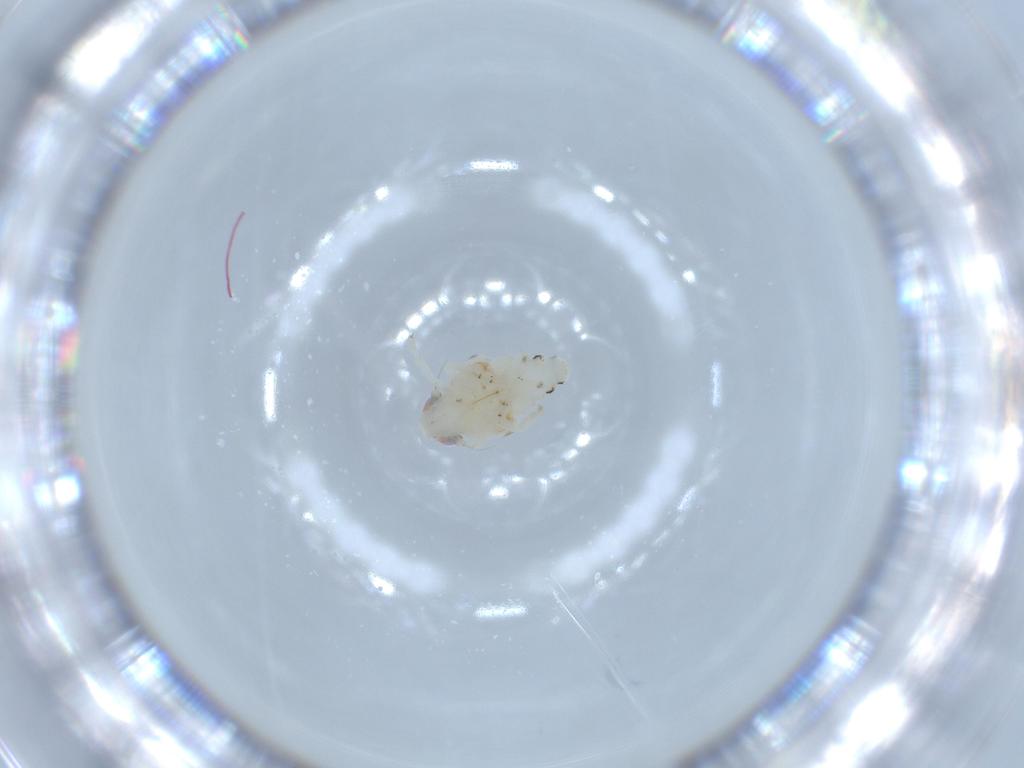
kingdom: Animalia
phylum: Arthropoda
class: Insecta
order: Hemiptera
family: Nogodinidae
